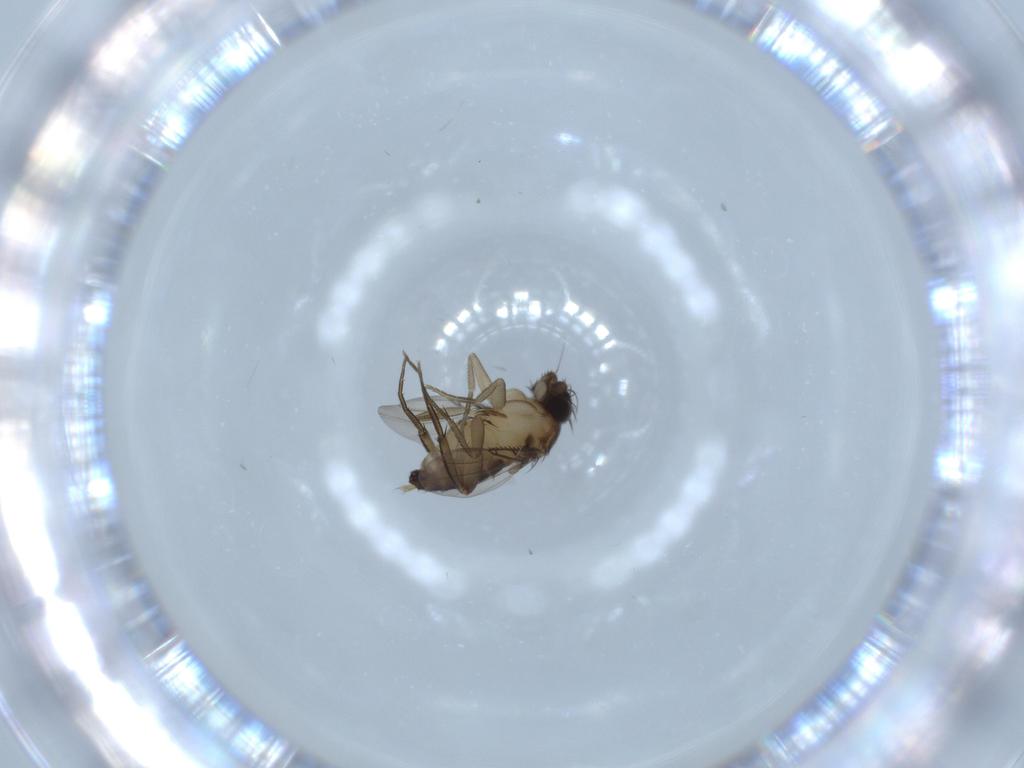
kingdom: Animalia
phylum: Arthropoda
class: Insecta
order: Diptera
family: Phoridae
